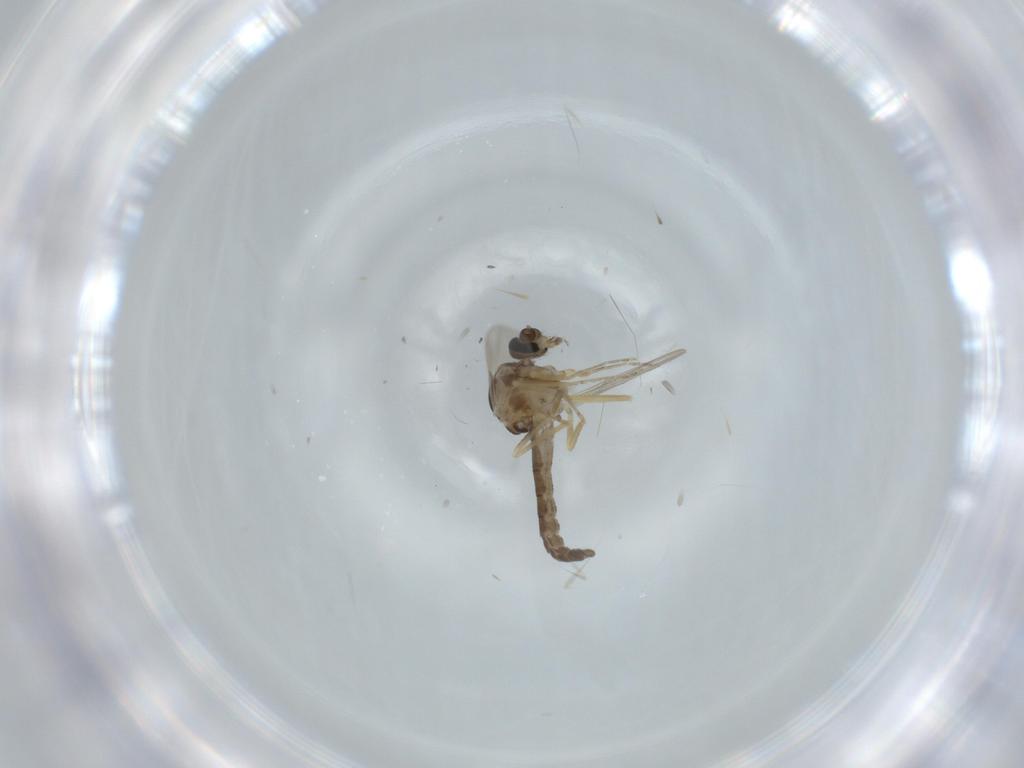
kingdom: Animalia
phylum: Arthropoda
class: Insecta
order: Diptera
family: Ceratopogonidae
